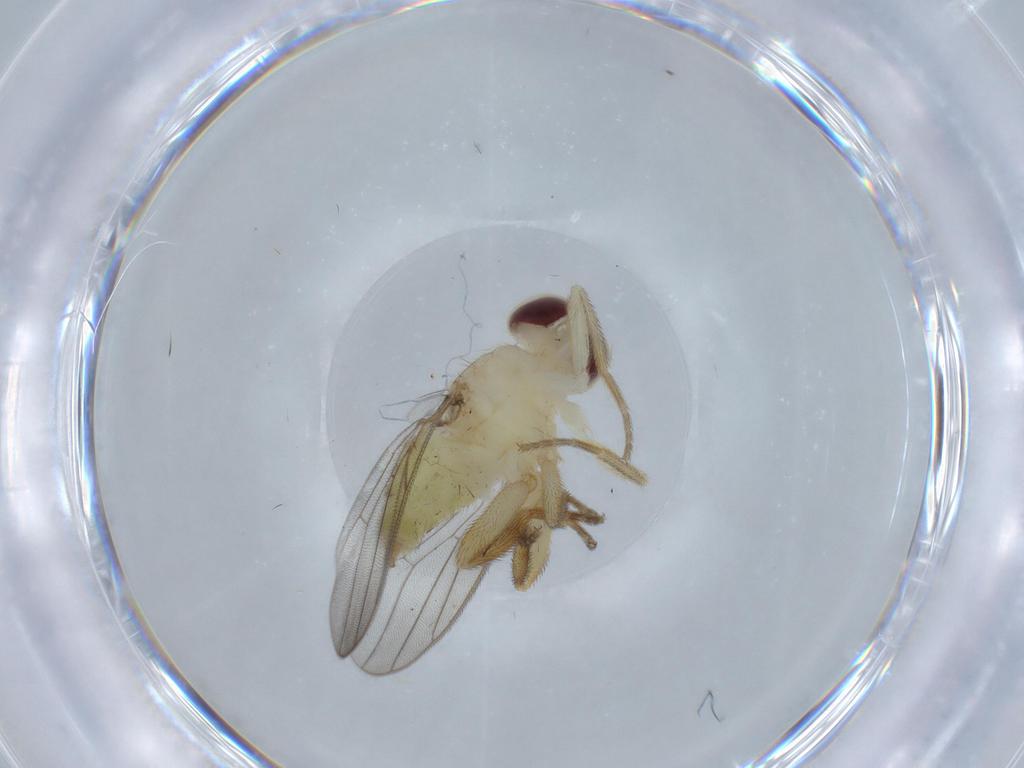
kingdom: Animalia
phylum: Arthropoda
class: Insecta
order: Diptera
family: Chloropidae
